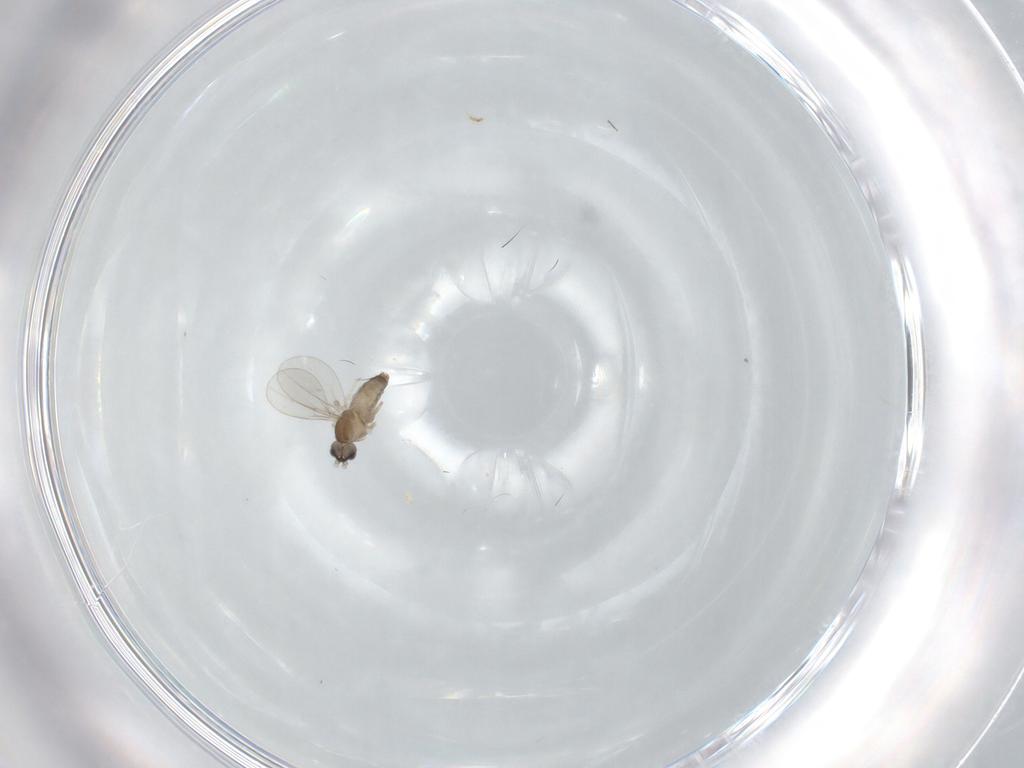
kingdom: Animalia
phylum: Arthropoda
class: Insecta
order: Diptera
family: Cecidomyiidae
